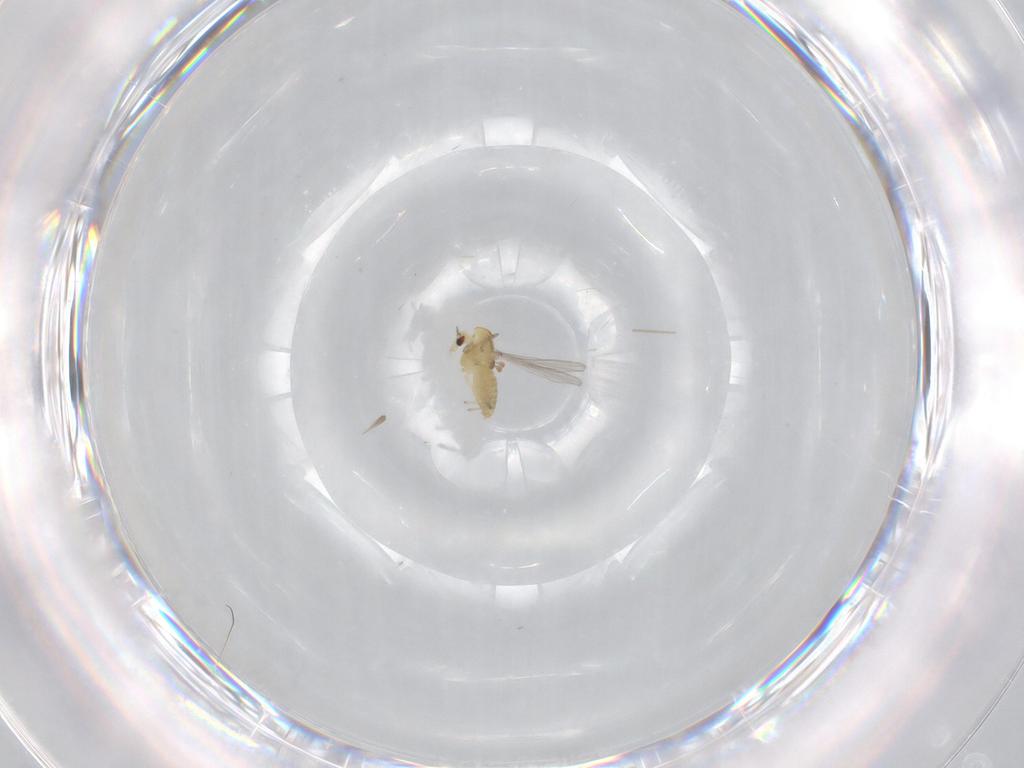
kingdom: Animalia
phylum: Arthropoda
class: Insecta
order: Diptera
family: Chironomidae
